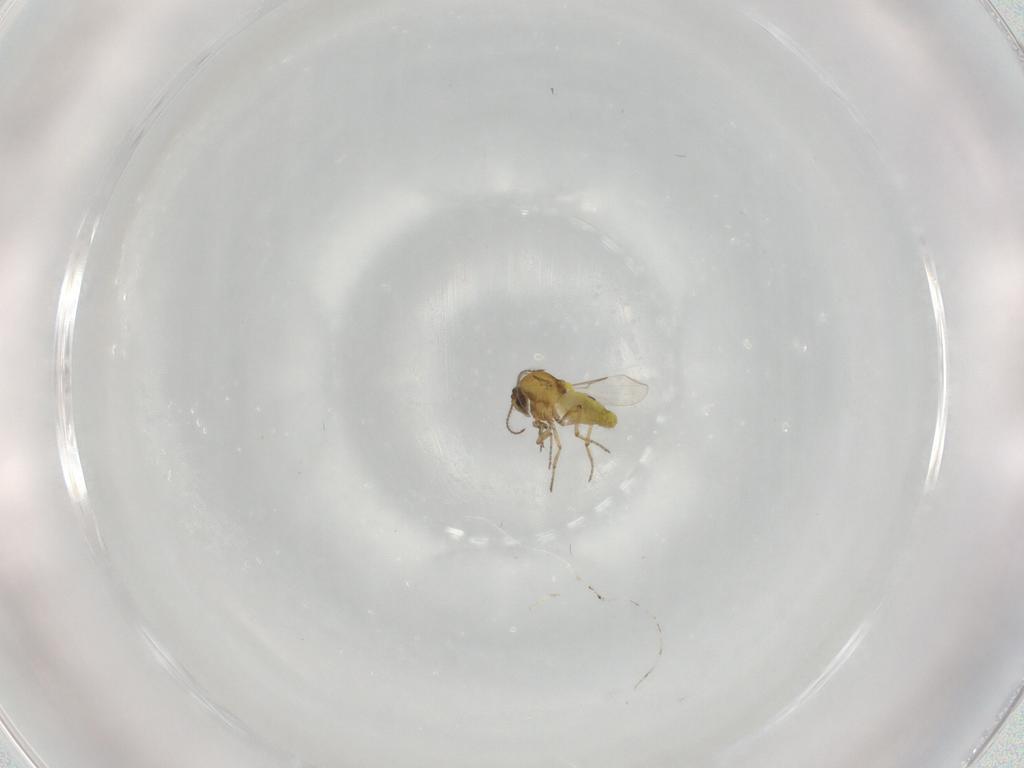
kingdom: Animalia
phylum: Arthropoda
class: Insecta
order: Diptera
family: Ceratopogonidae
